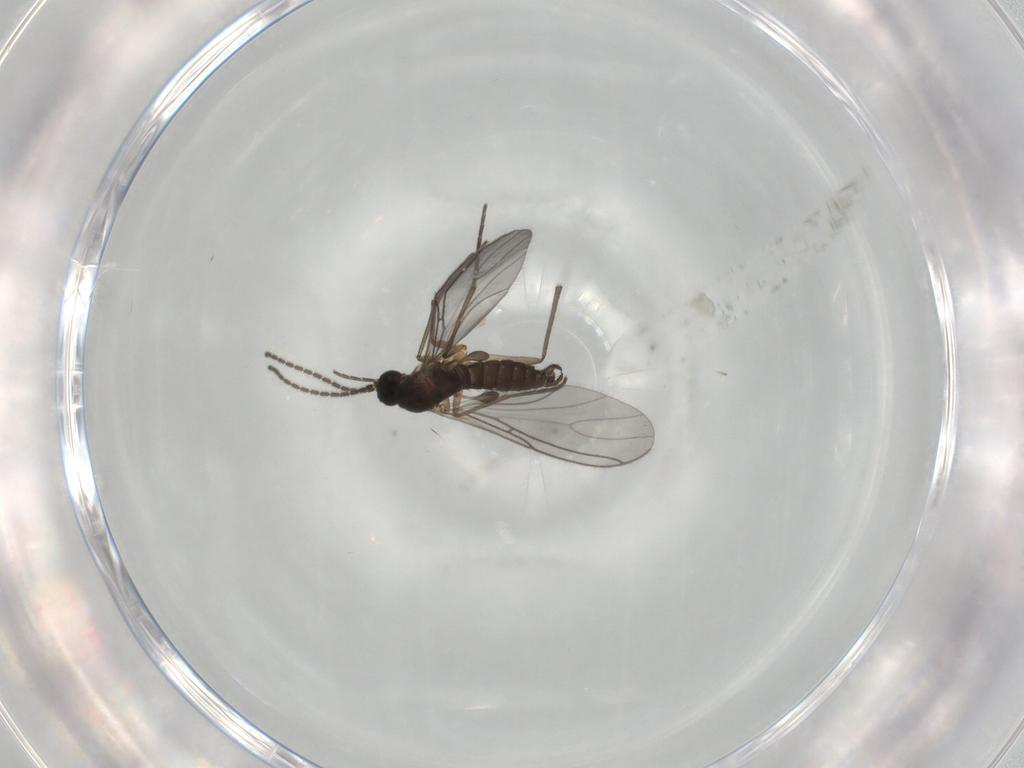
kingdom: Animalia
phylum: Arthropoda
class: Insecta
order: Diptera
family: Sciaridae
